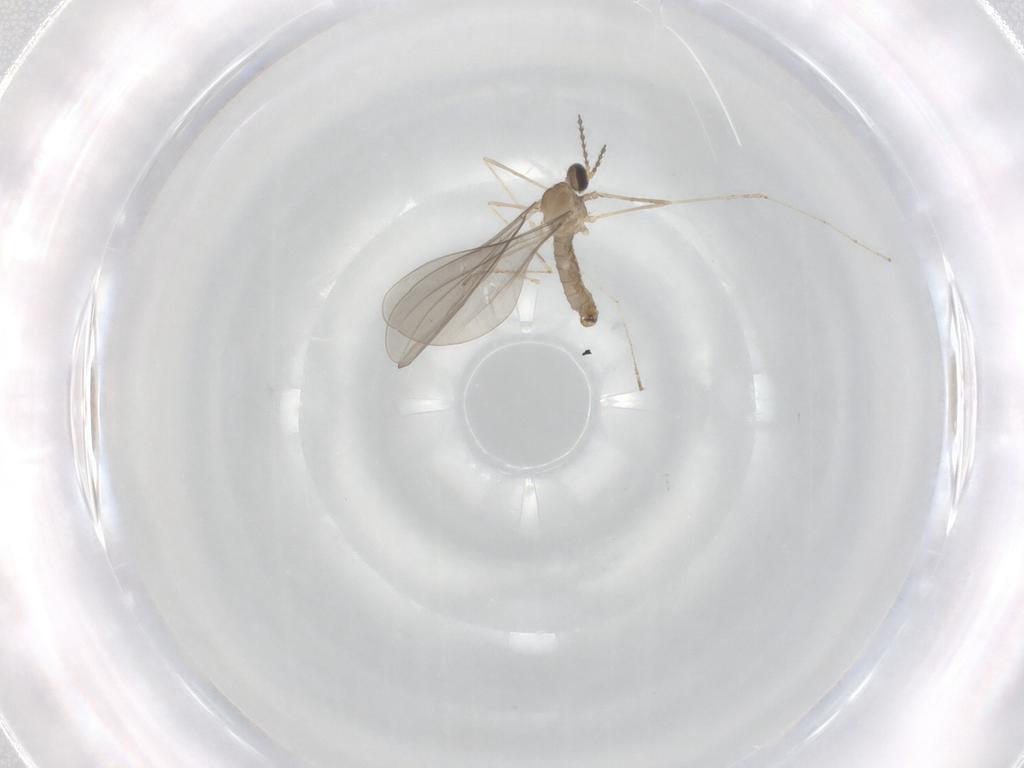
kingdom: Animalia
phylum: Arthropoda
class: Insecta
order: Diptera
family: Cecidomyiidae
